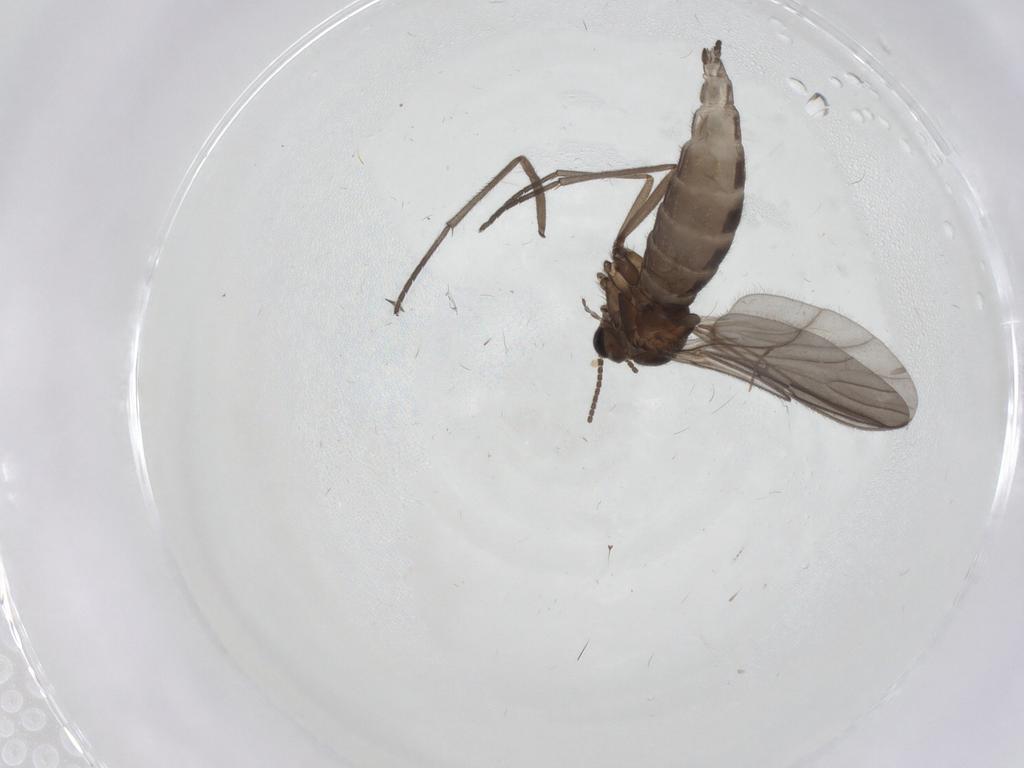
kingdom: Animalia
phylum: Arthropoda
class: Insecta
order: Diptera
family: Sciaridae
